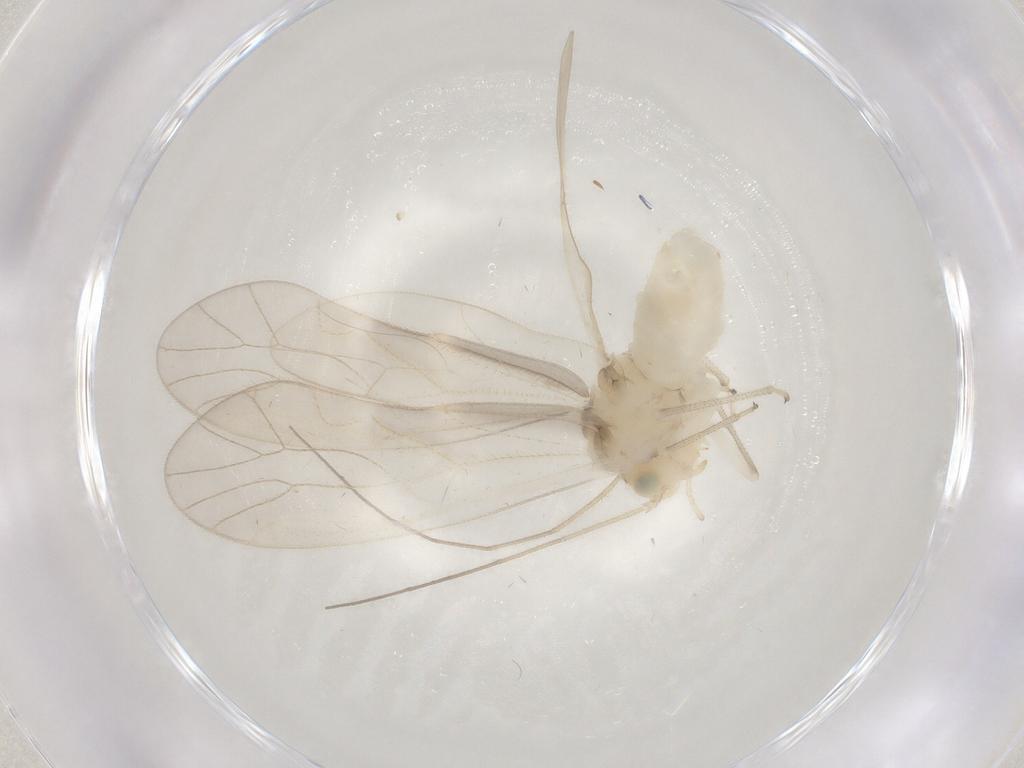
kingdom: Animalia
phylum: Arthropoda
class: Insecta
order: Psocodea
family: Caeciliusidae
